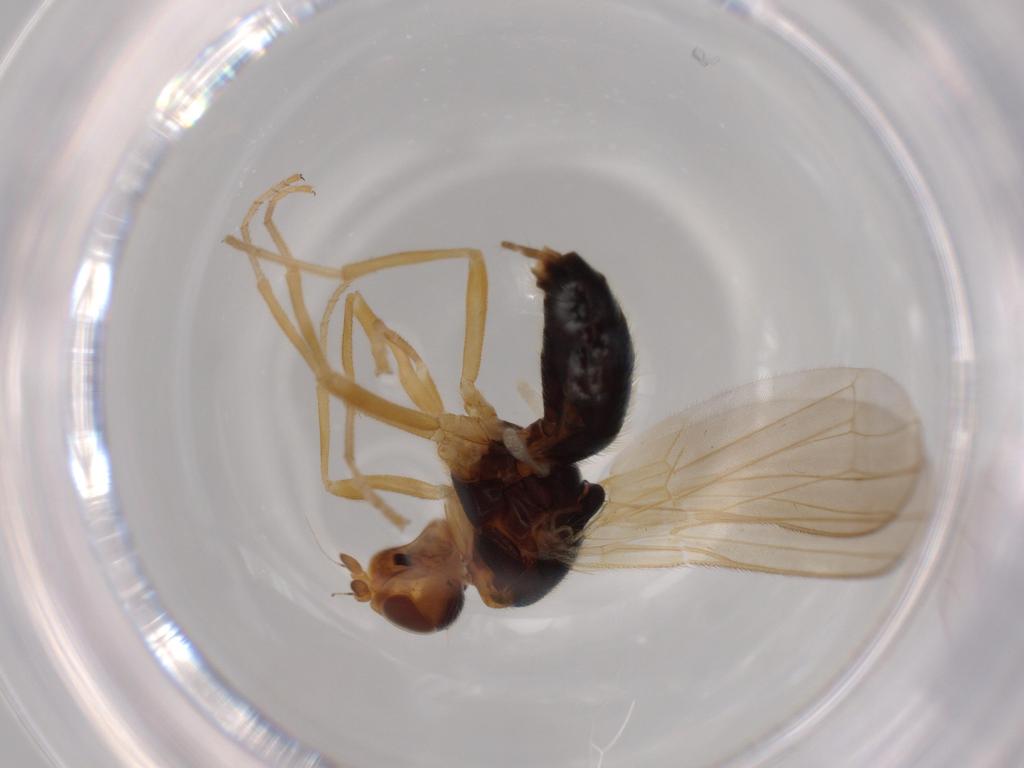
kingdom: Animalia
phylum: Arthropoda
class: Insecta
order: Diptera
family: Psilidae
